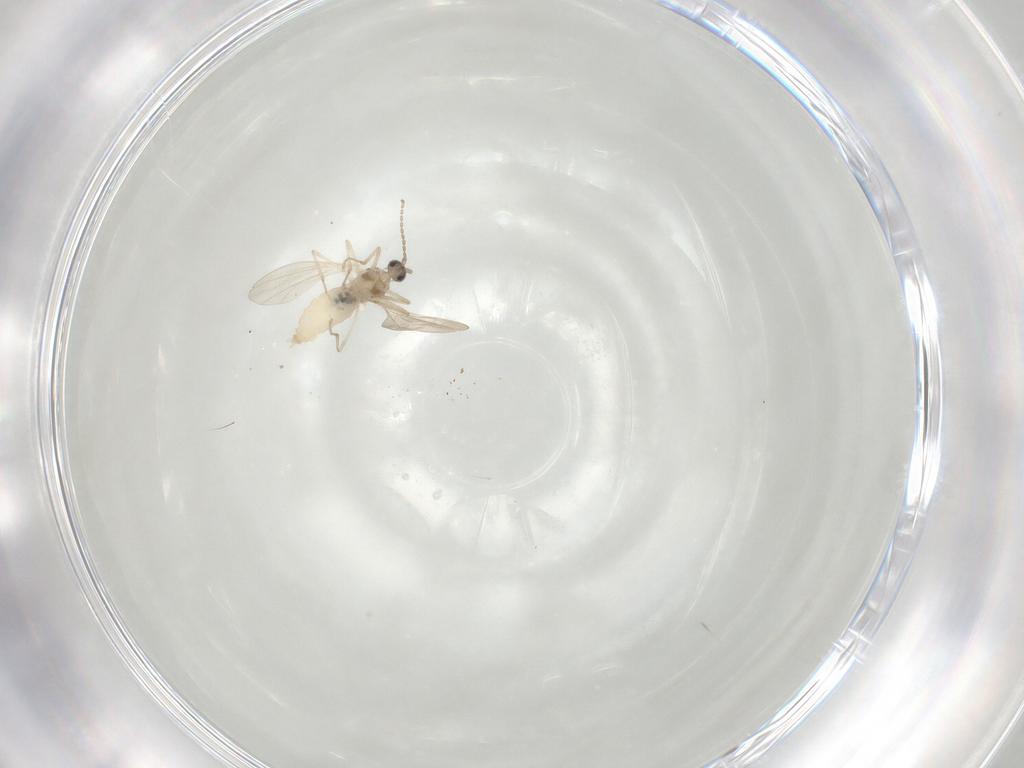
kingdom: Animalia
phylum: Arthropoda
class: Insecta
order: Diptera
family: Cecidomyiidae
